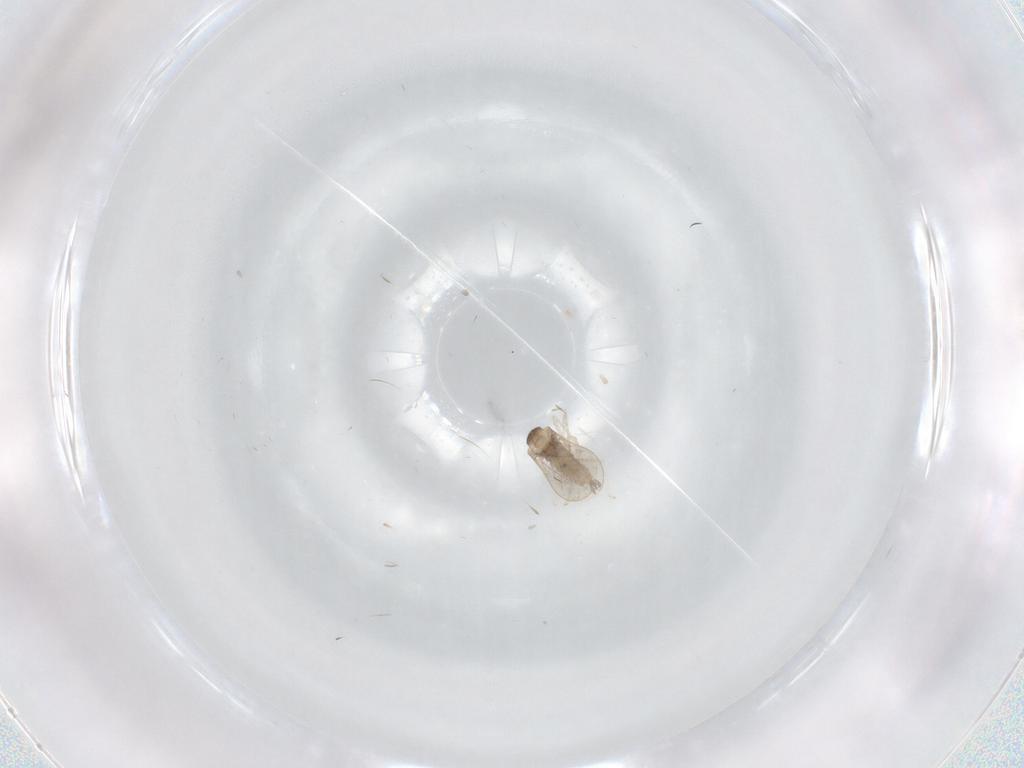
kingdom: Animalia
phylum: Arthropoda
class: Insecta
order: Diptera
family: Cecidomyiidae
